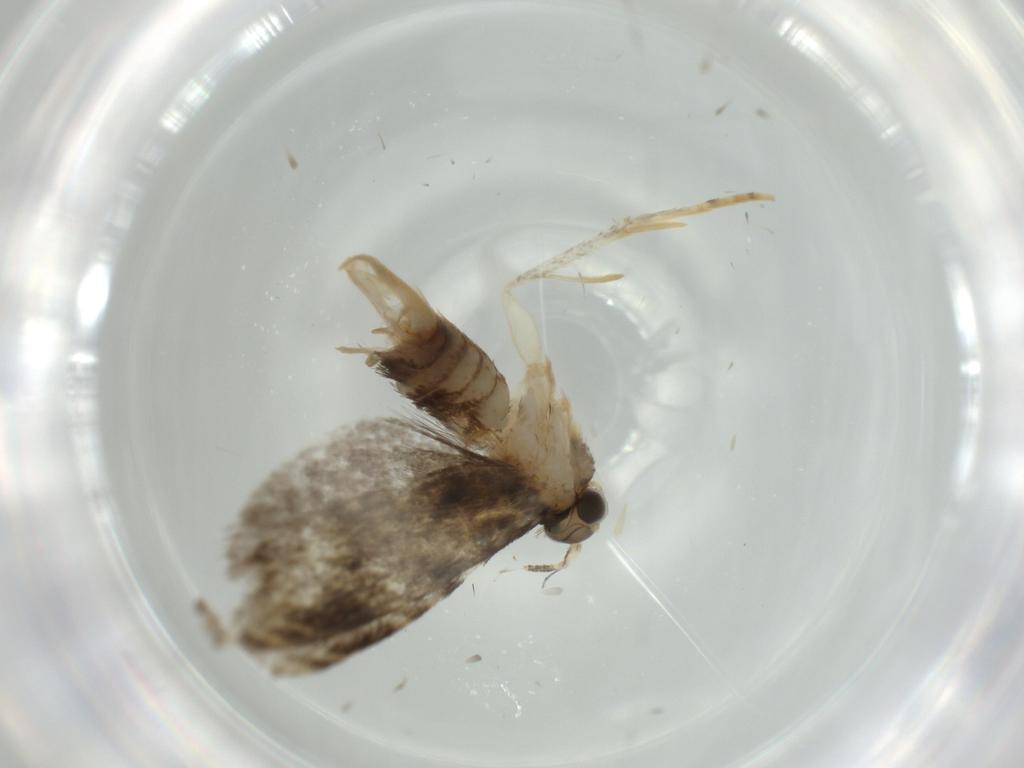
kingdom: Animalia
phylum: Arthropoda
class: Insecta
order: Lepidoptera
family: Tineidae
